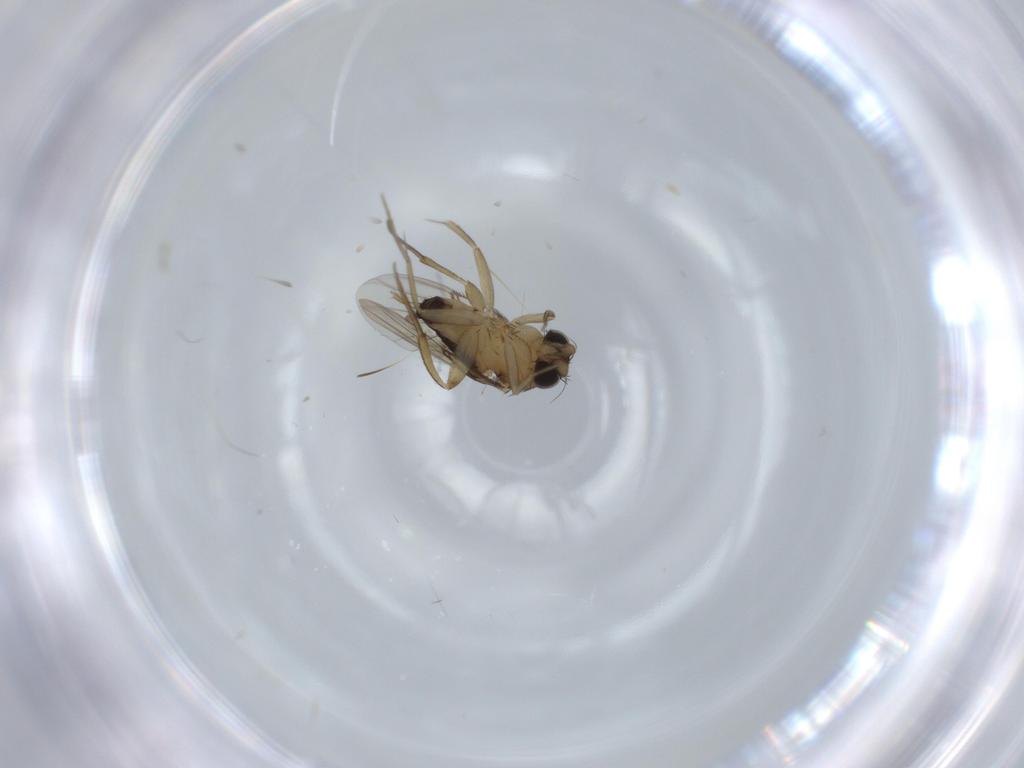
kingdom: Animalia
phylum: Arthropoda
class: Insecta
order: Diptera
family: Phoridae
